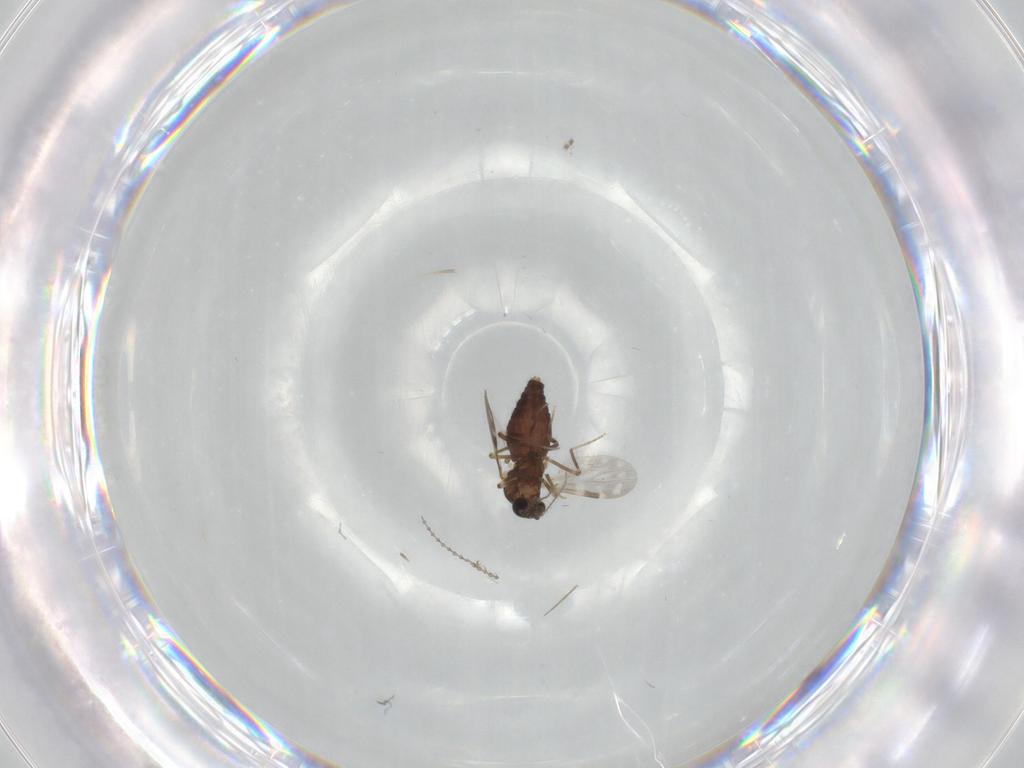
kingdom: Animalia
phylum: Arthropoda
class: Insecta
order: Diptera
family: Chironomidae
